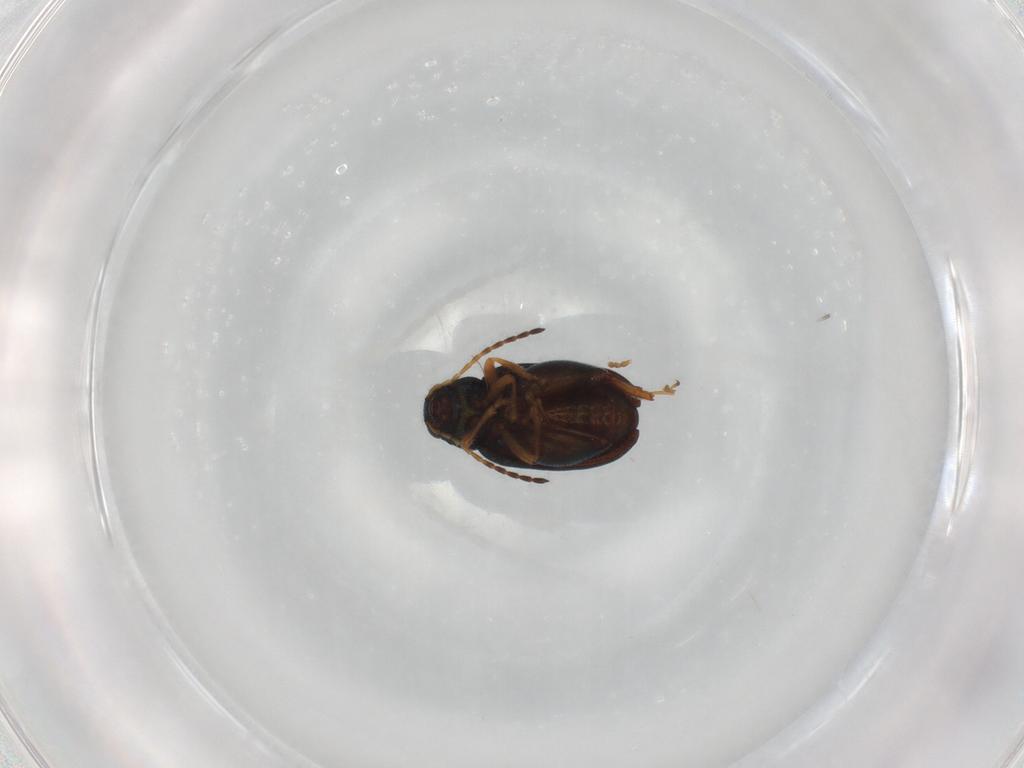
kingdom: Animalia
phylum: Arthropoda
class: Insecta
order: Coleoptera
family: Chrysomelidae
